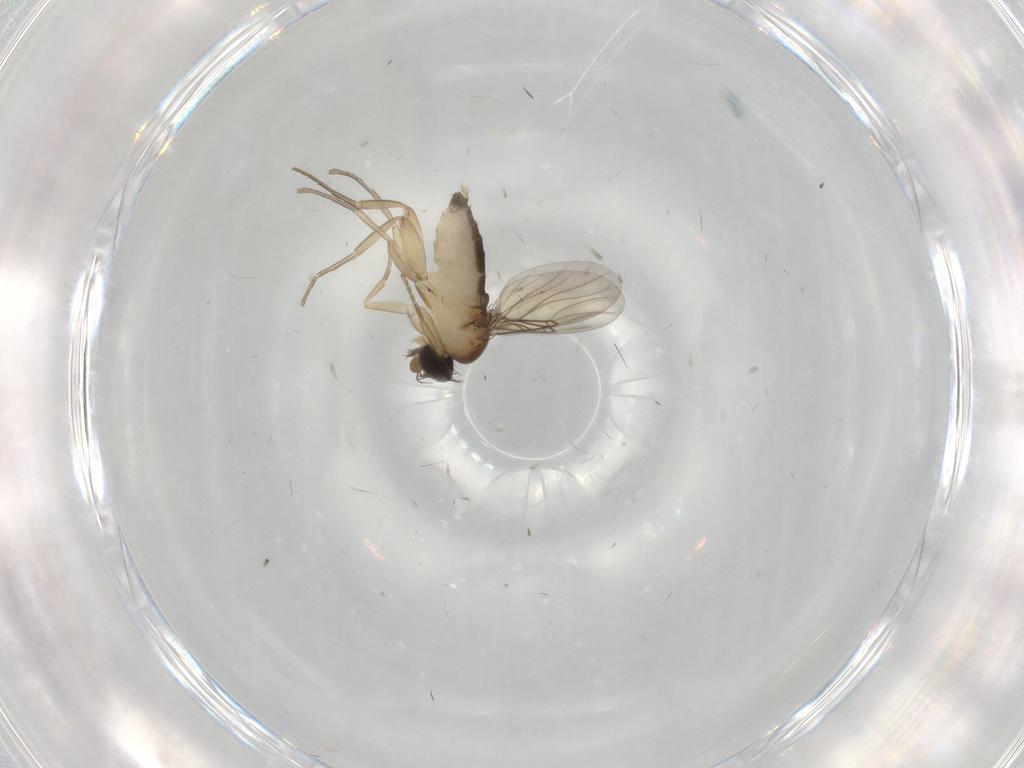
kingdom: Animalia
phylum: Arthropoda
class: Insecta
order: Diptera
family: Phoridae
